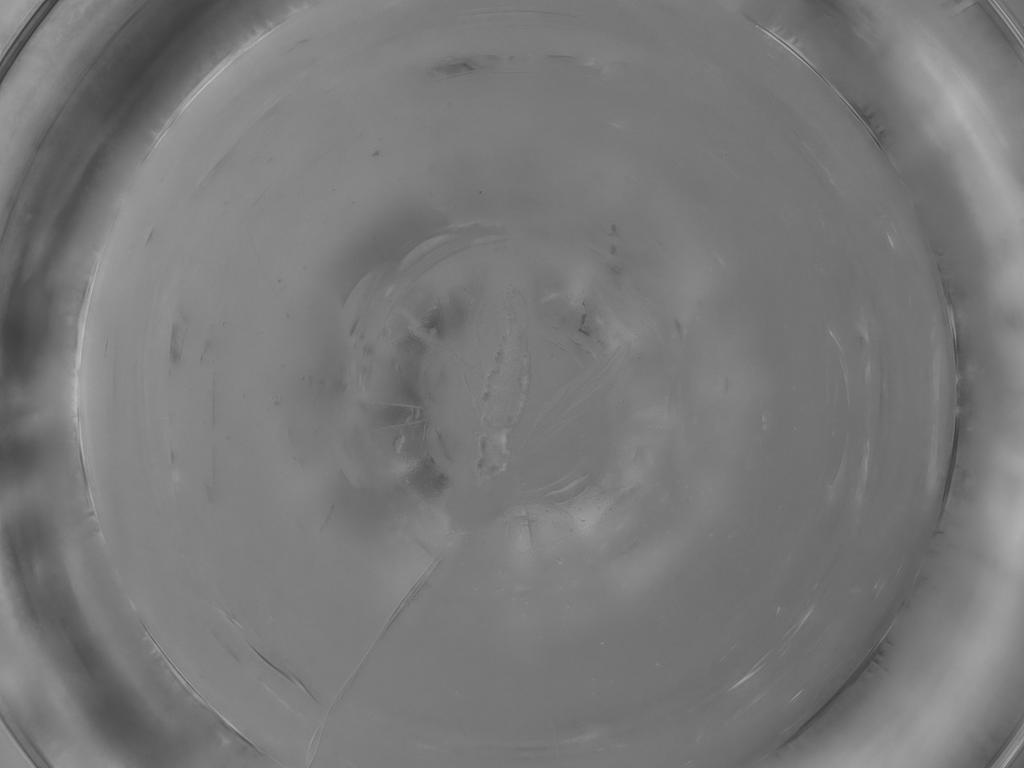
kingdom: Animalia
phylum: Arthropoda
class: Insecta
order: Diptera
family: Sciaridae
